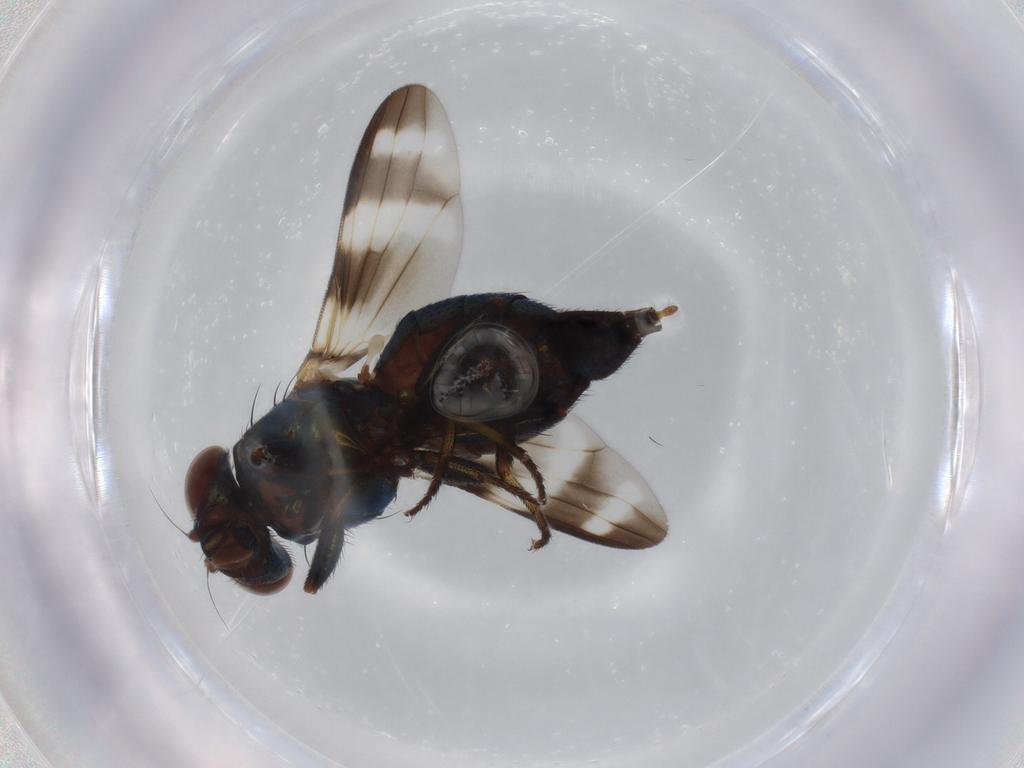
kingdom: Animalia
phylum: Arthropoda
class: Insecta
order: Diptera
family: Ulidiidae
